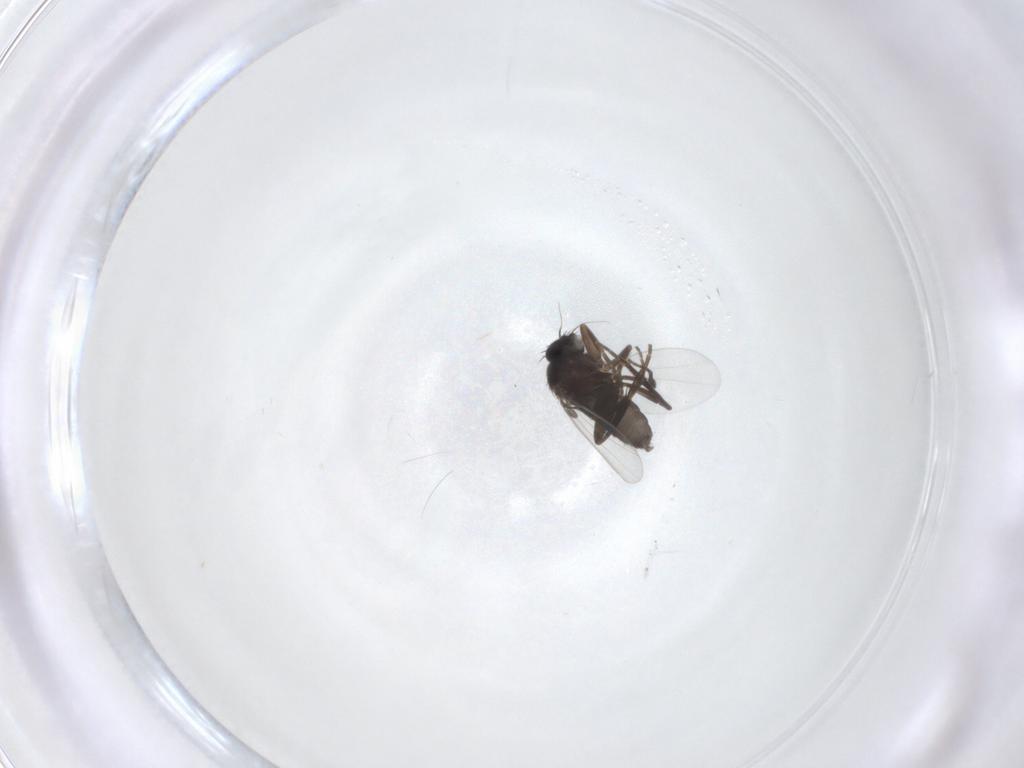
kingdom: Animalia
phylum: Arthropoda
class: Insecta
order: Diptera
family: Phoridae
